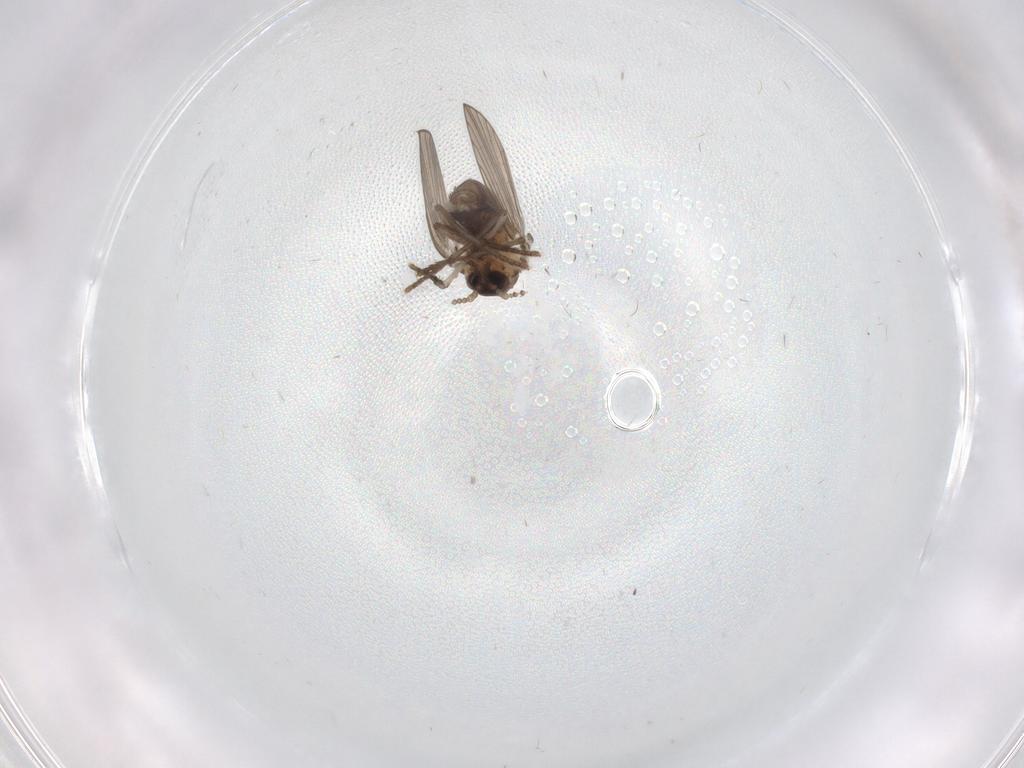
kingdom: Animalia
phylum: Arthropoda
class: Insecta
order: Diptera
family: Psychodidae
